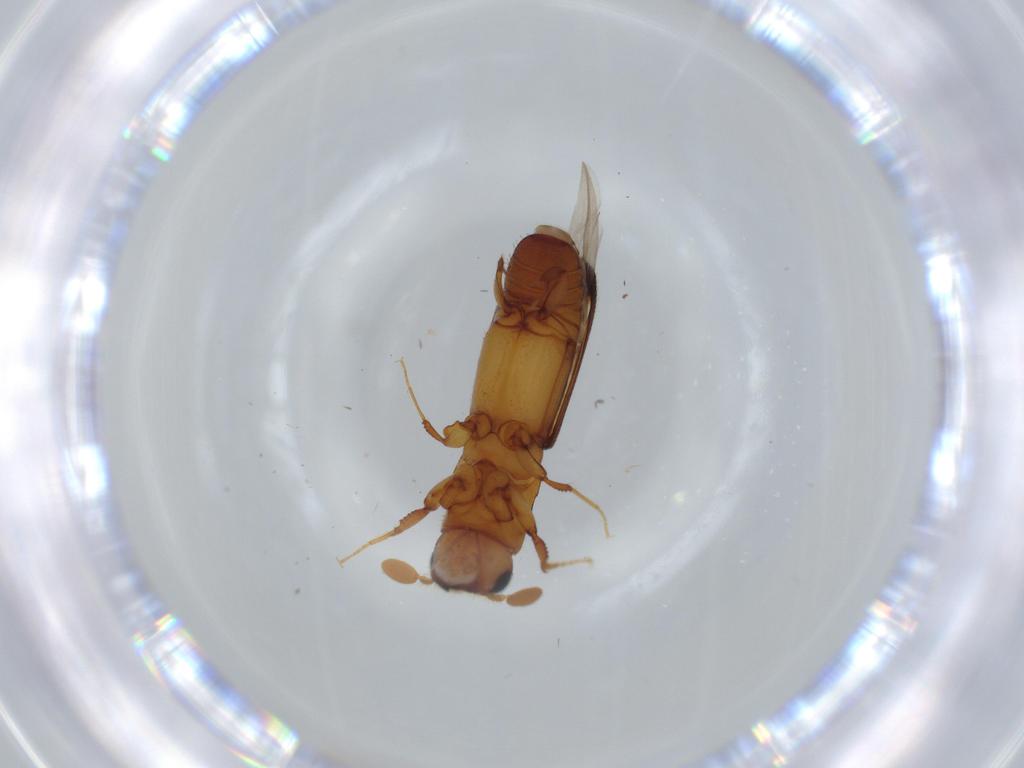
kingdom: Animalia
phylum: Arthropoda
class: Insecta
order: Coleoptera
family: Curculionidae
